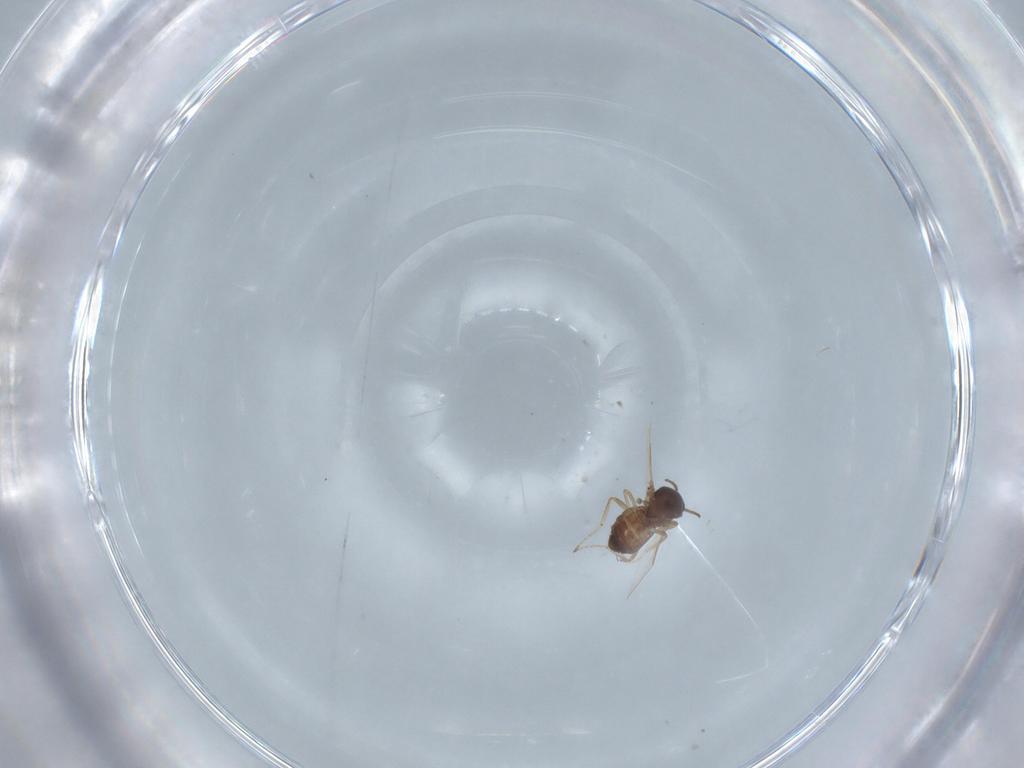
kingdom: Animalia
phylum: Arthropoda
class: Insecta
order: Diptera
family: Ceratopogonidae
